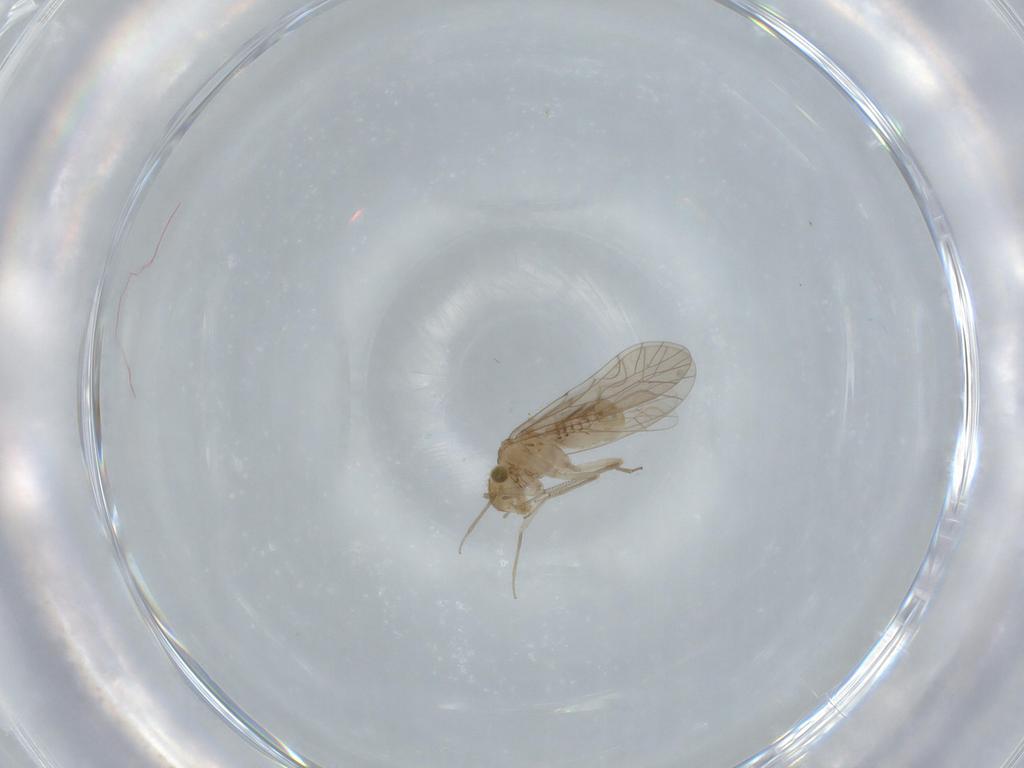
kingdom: Animalia
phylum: Arthropoda
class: Insecta
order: Psocodea
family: Lachesillidae
